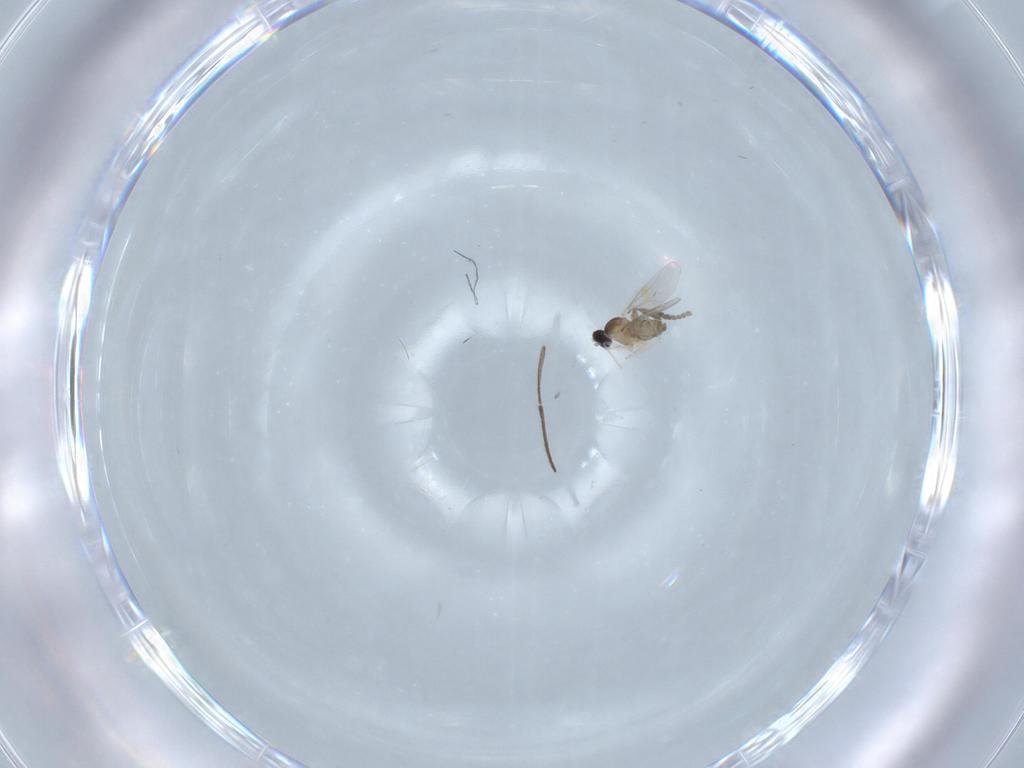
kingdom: Animalia
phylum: Arthropoda
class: Insecta
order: Diptera
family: Cecidomyiidae
